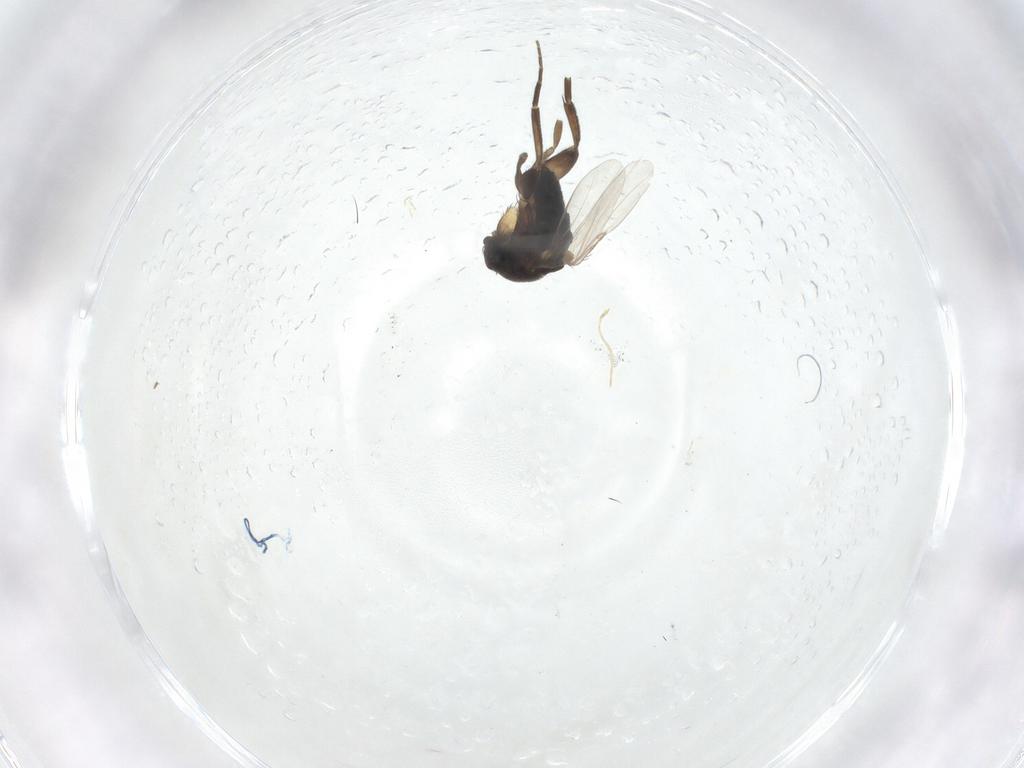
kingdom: Animalia
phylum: Arthropoda
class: Insecta
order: Diptera
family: Phoridae
